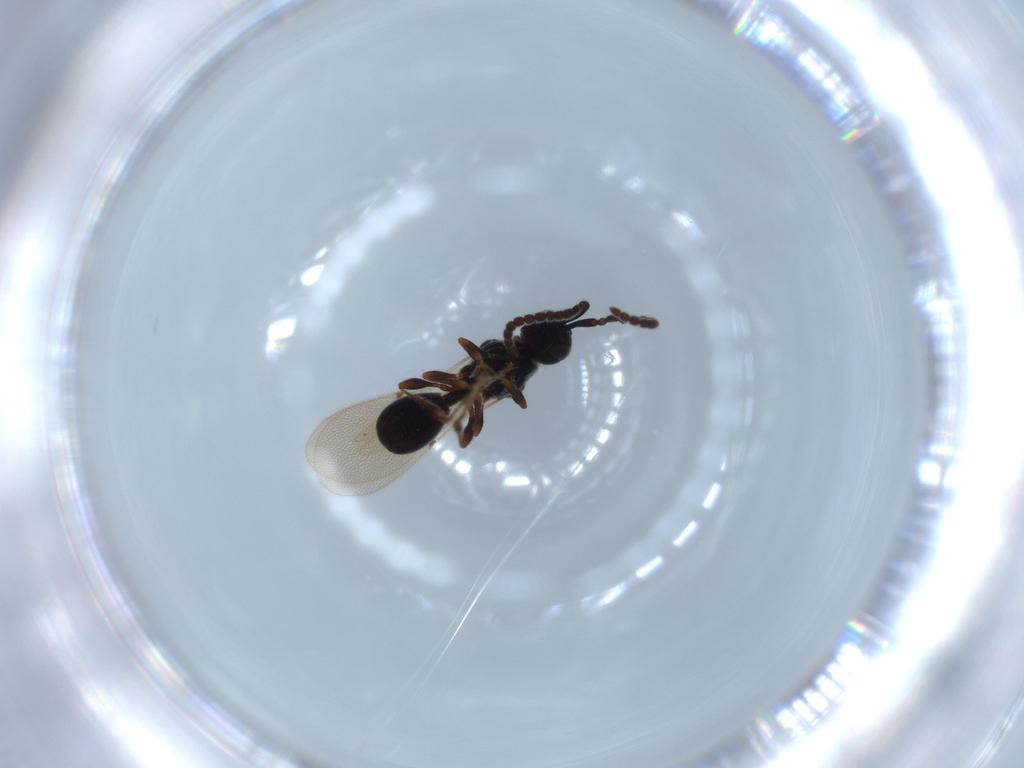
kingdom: Animalia
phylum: Arthropoda
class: Insecta
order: Hymenoptera
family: Diapriidae
